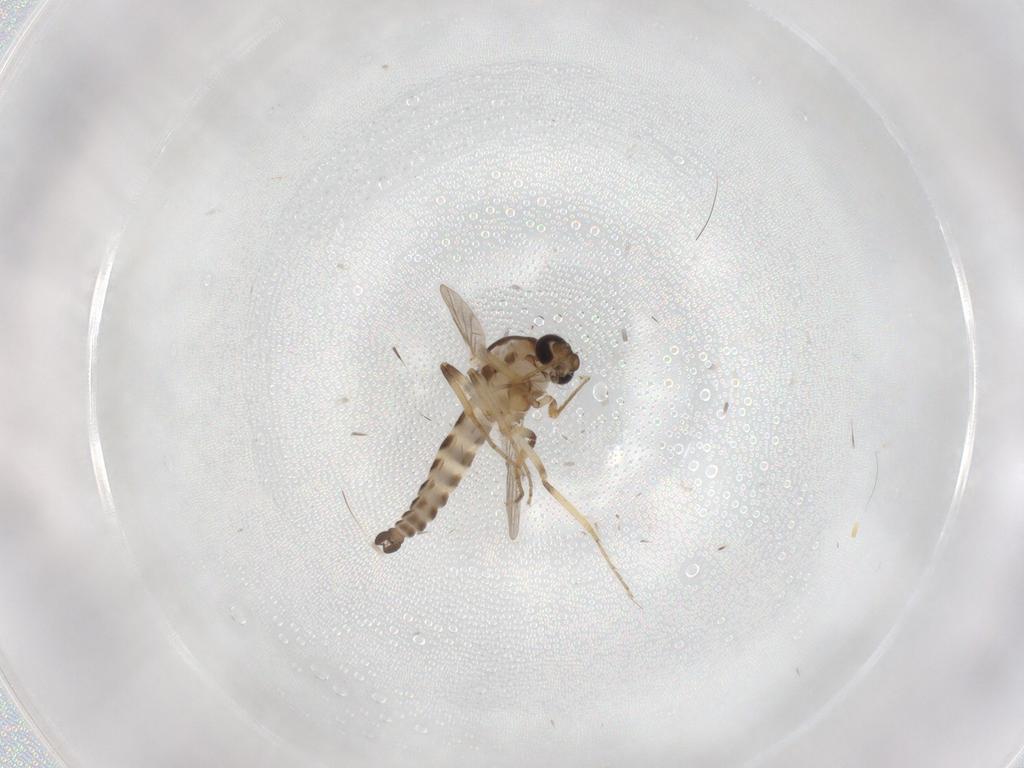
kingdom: Animalia
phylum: Arthropoda
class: Insecta
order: Diptera
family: Ceratopogonidae
